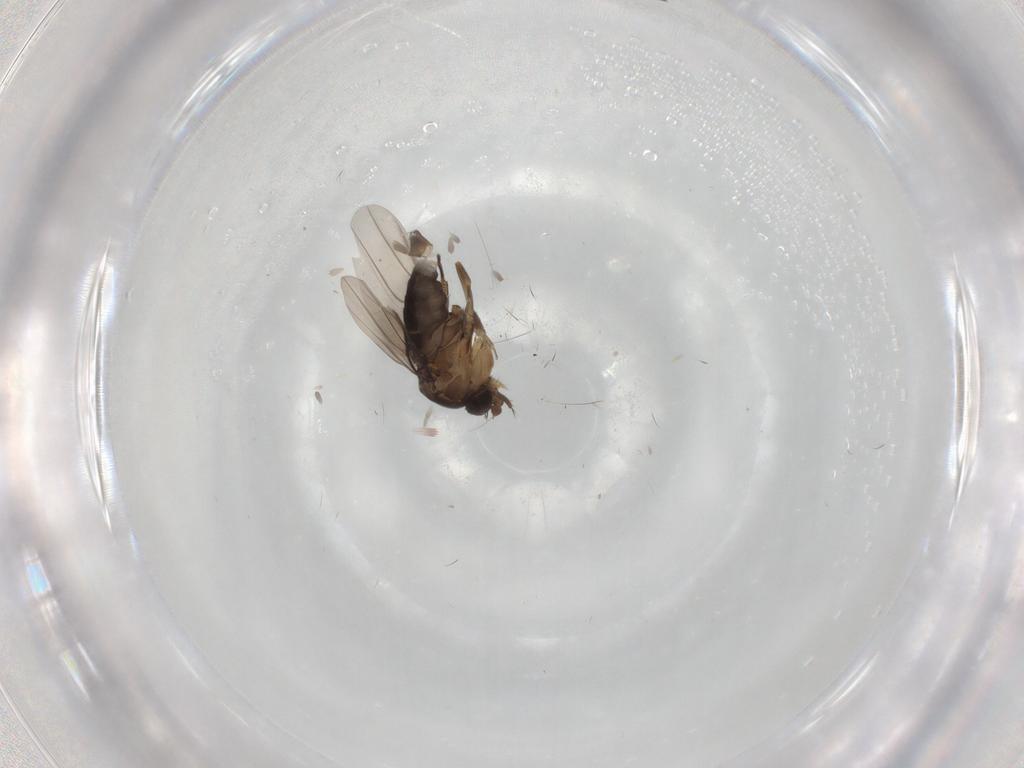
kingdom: Animalia
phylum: Arthropoda
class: Insecta
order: Diptera
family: Phoridae
